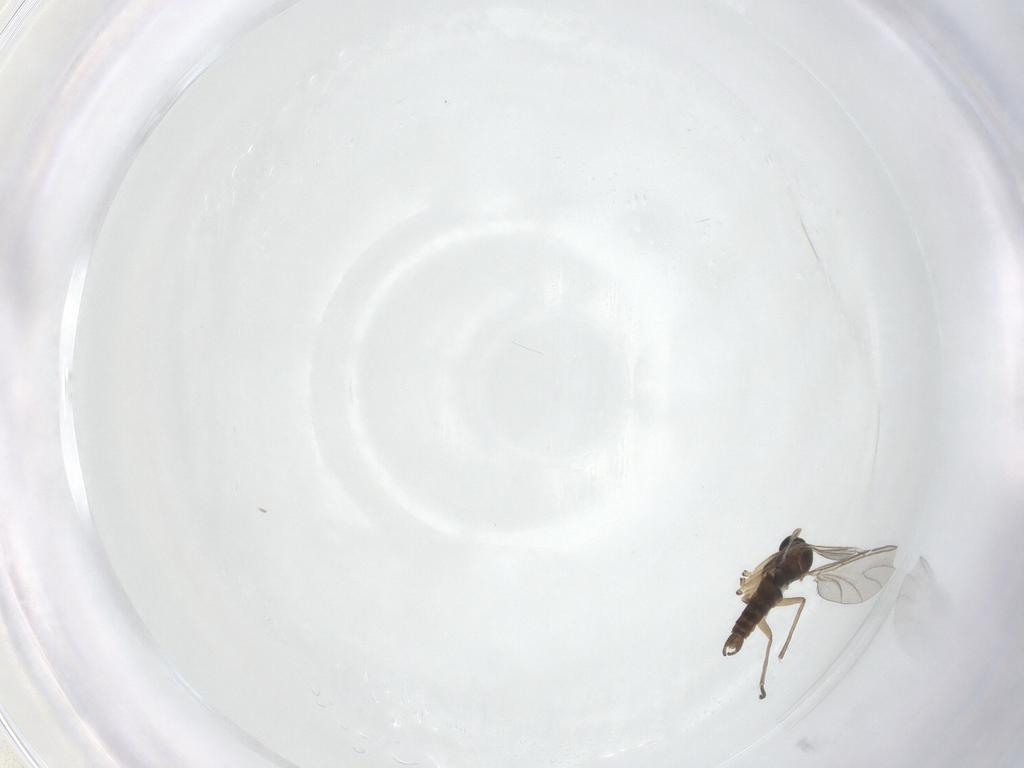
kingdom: Animalia
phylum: Arthropoda
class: Insecta
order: Diptera
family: Sciaridae
